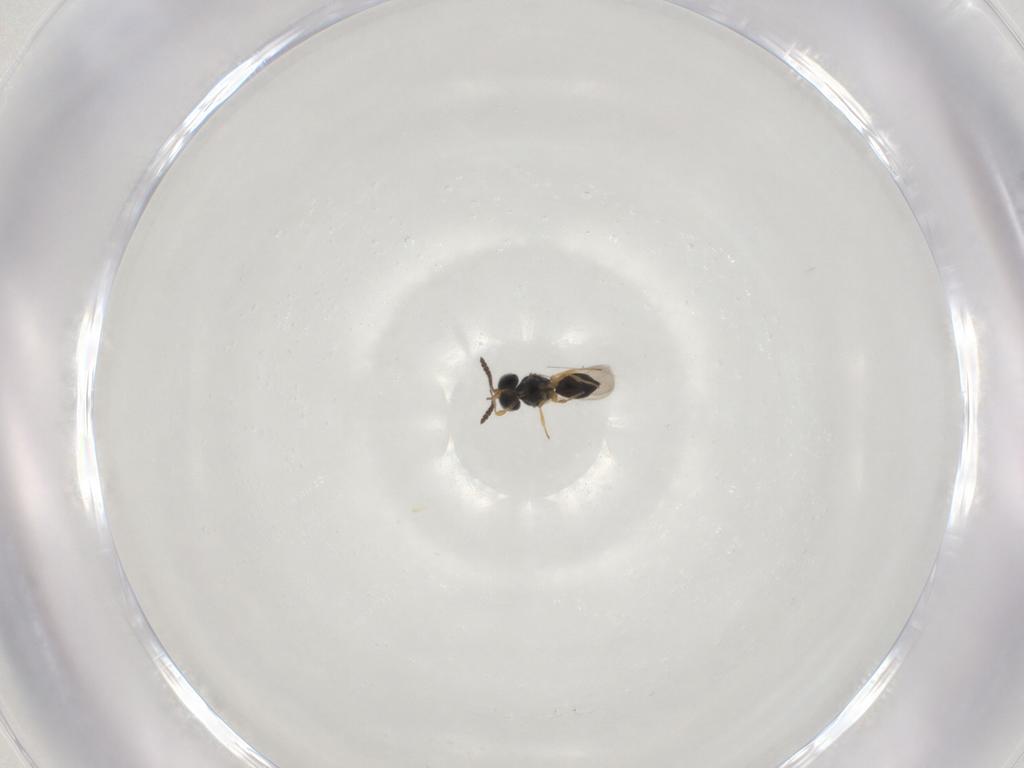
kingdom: Animalia
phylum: Arthropoda
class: Insecta
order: Hymenoptera
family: Scelionidae
